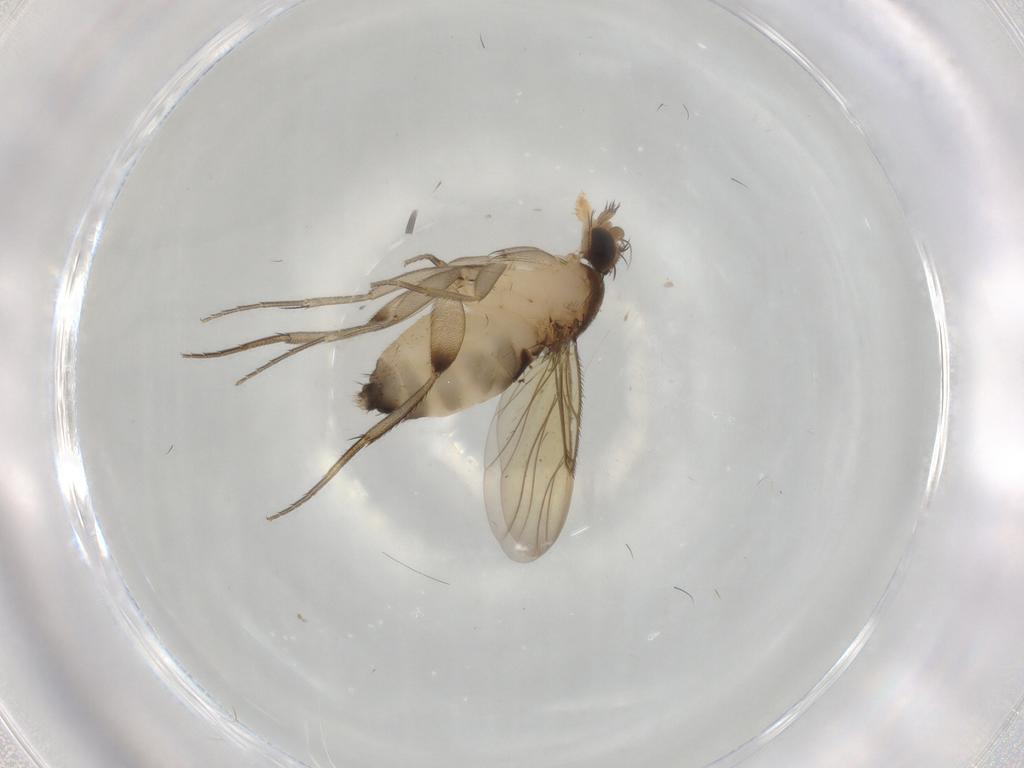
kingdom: Animalia
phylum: Arthropoda
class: Insecta
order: Diptera
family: Phoridae
